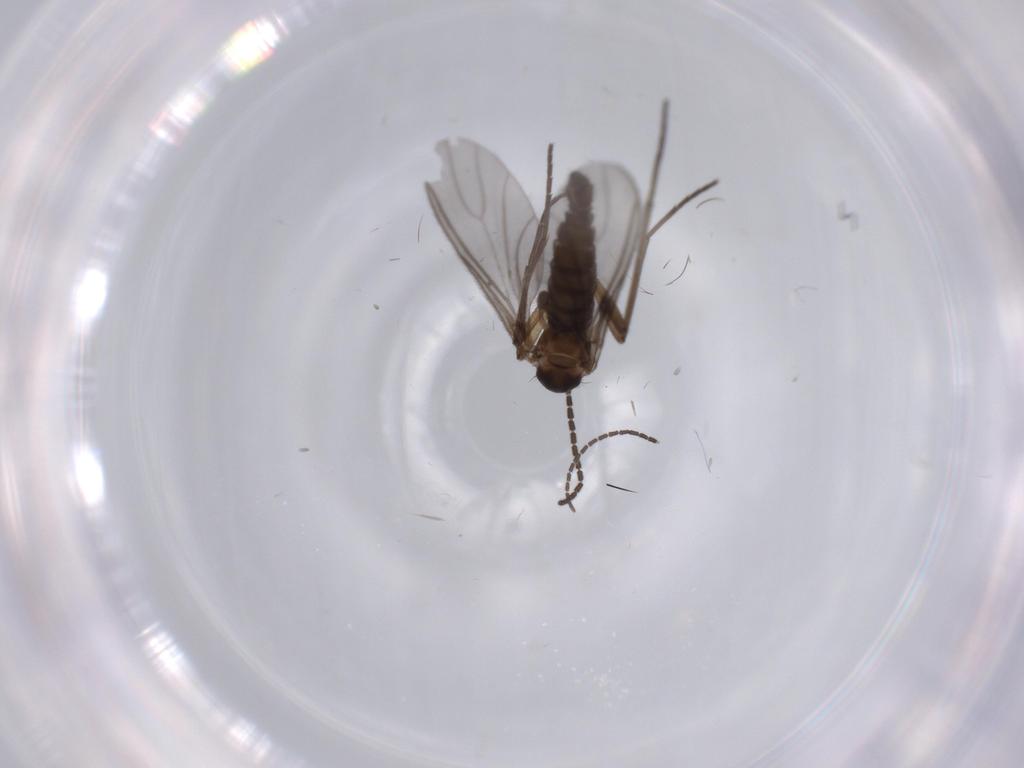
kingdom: Animalia
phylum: Arthropoda
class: Insecta
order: Diptera
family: Sciaridae
